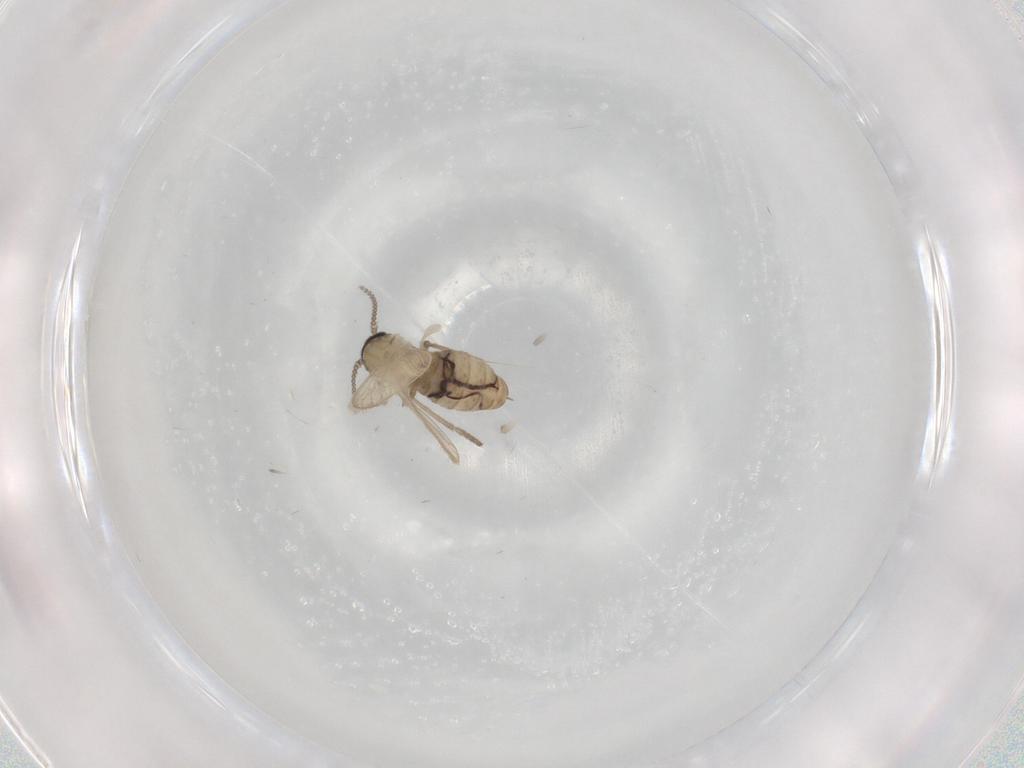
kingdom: Animalia
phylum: Arthropoda
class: Insecta
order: Diptera
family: Psychodidae
